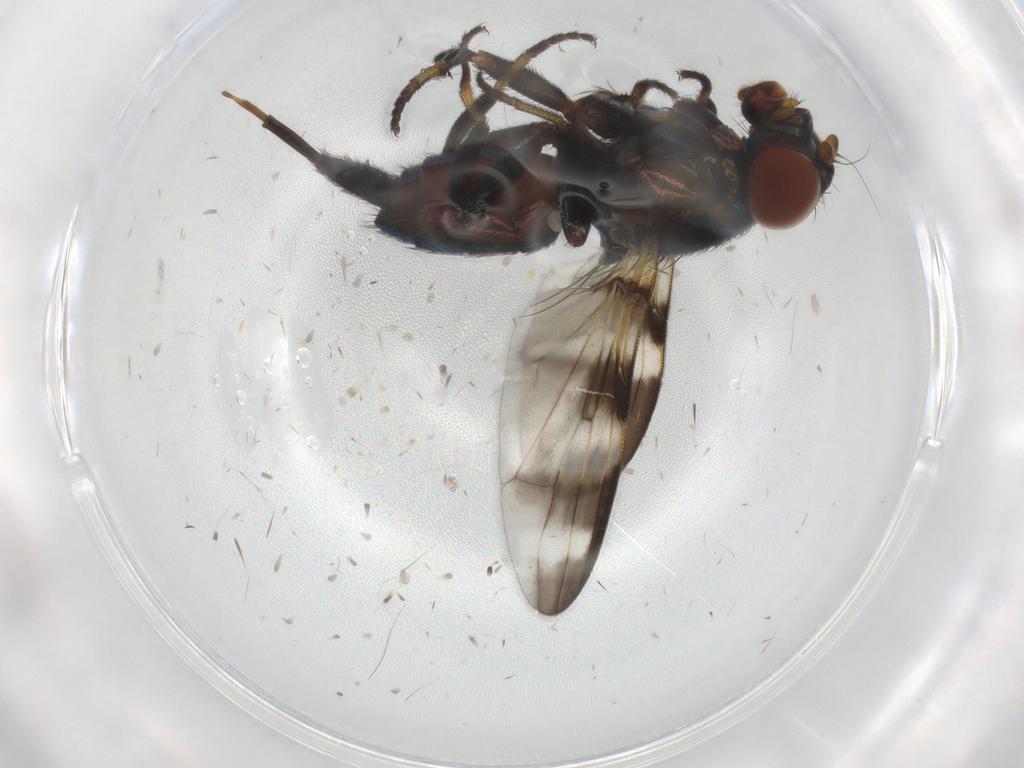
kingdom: Animalia
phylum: Arthropoda
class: Insecta
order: Diptera
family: Ulidiidae
